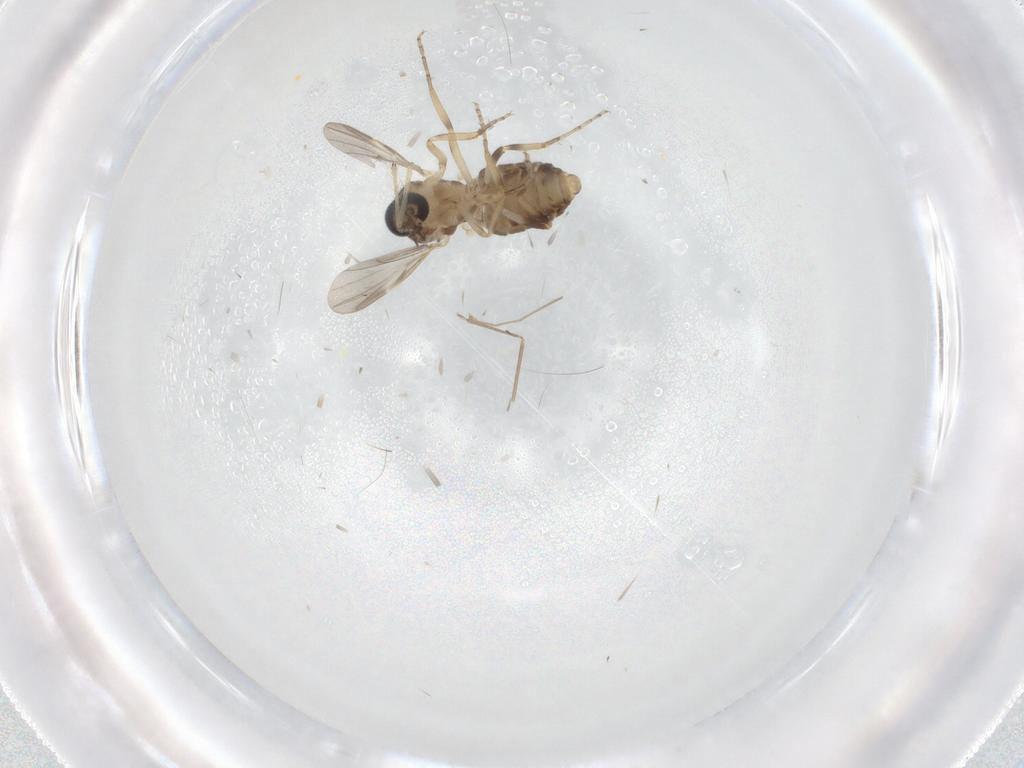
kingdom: Animalia
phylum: Arthropoda
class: Insecta
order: Diptera
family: Ceratopogonidae
